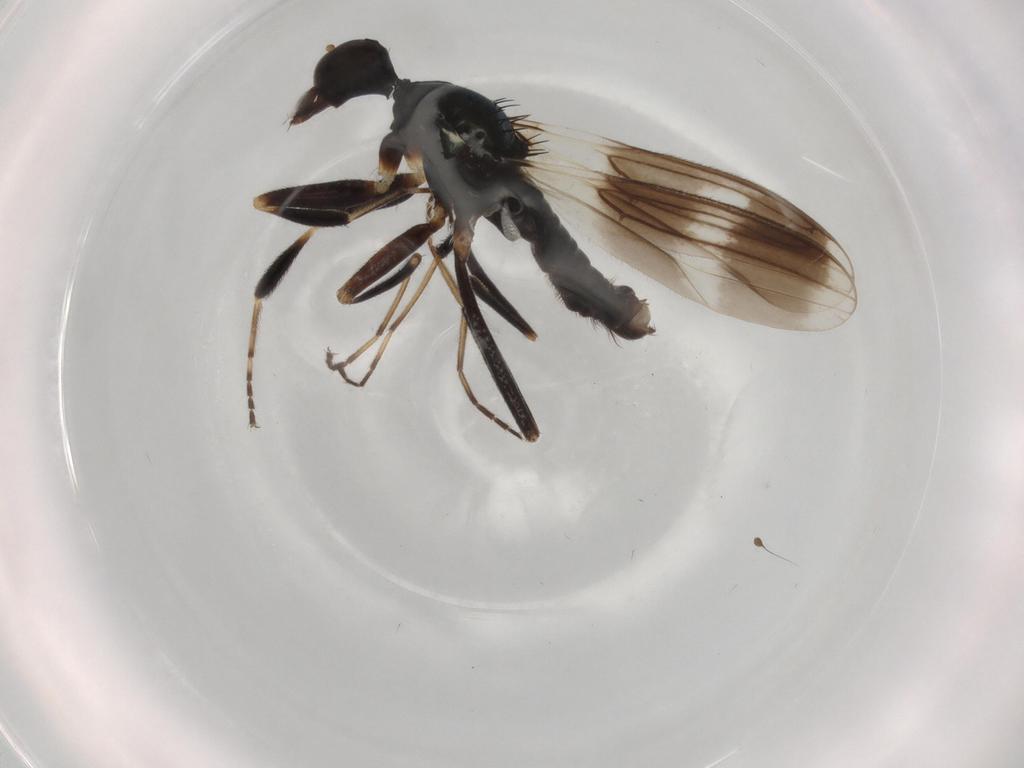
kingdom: Animalia
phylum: Arthropoda
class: Insecta
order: Diptera
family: Hybotidae
